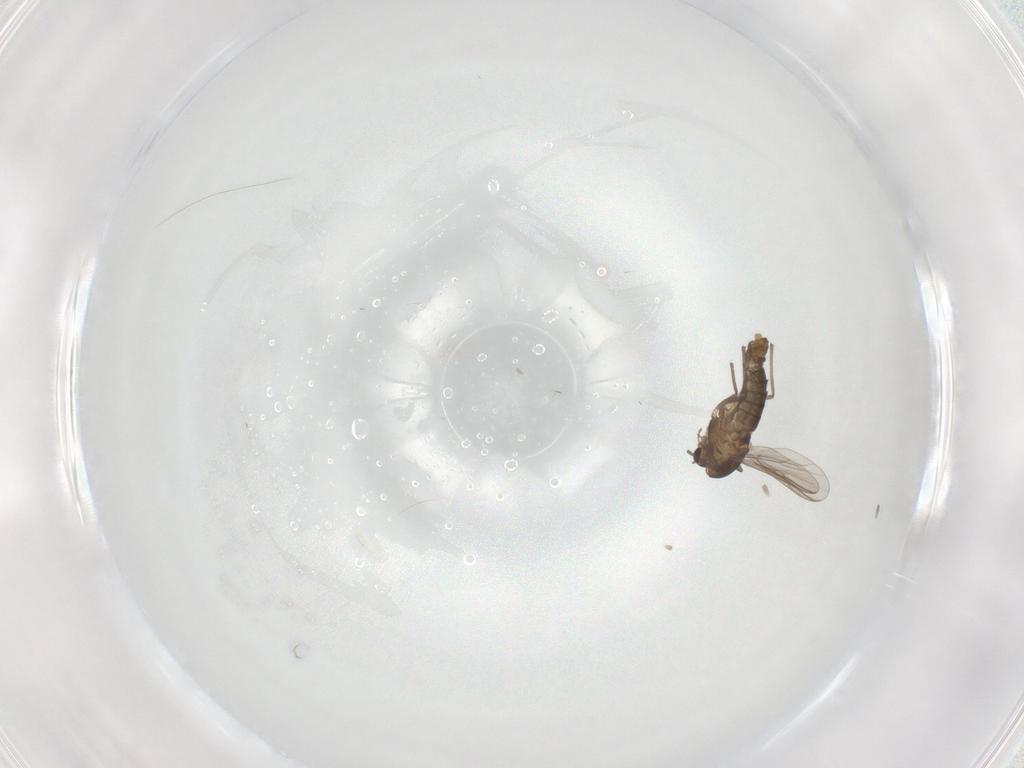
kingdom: Animalia
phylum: Arthropoda
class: Insecta
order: Diptera
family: Chironomidae
